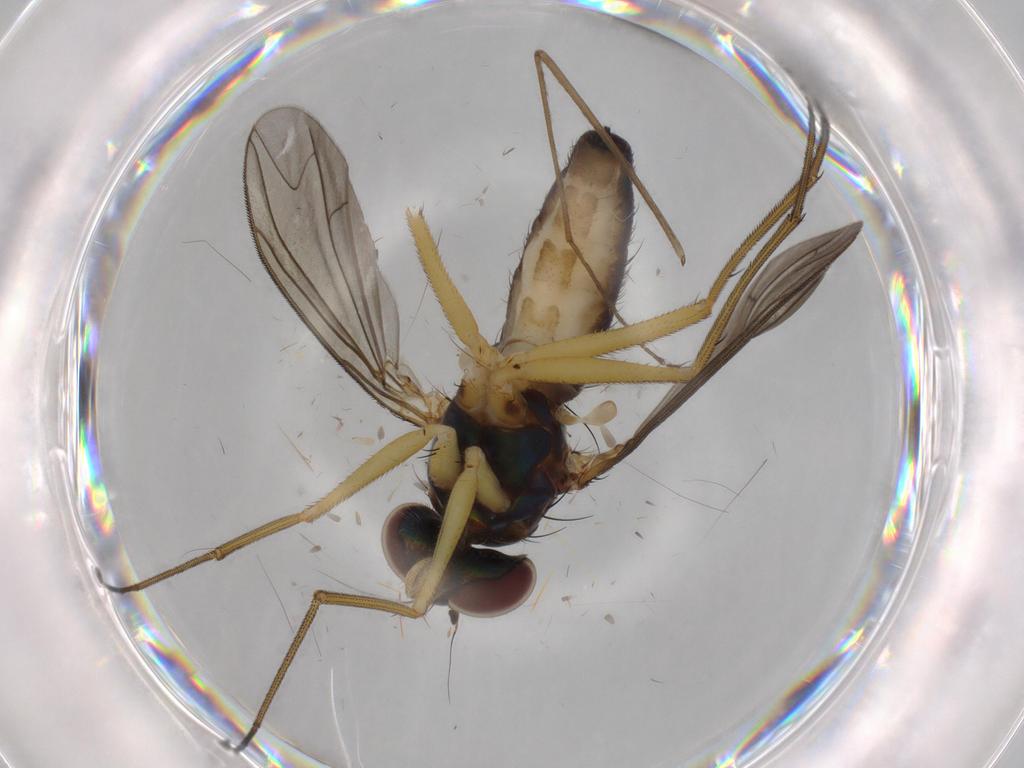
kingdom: Animalia
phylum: Arthropoda
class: Insecta
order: Diptera
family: Dolichopodidae
